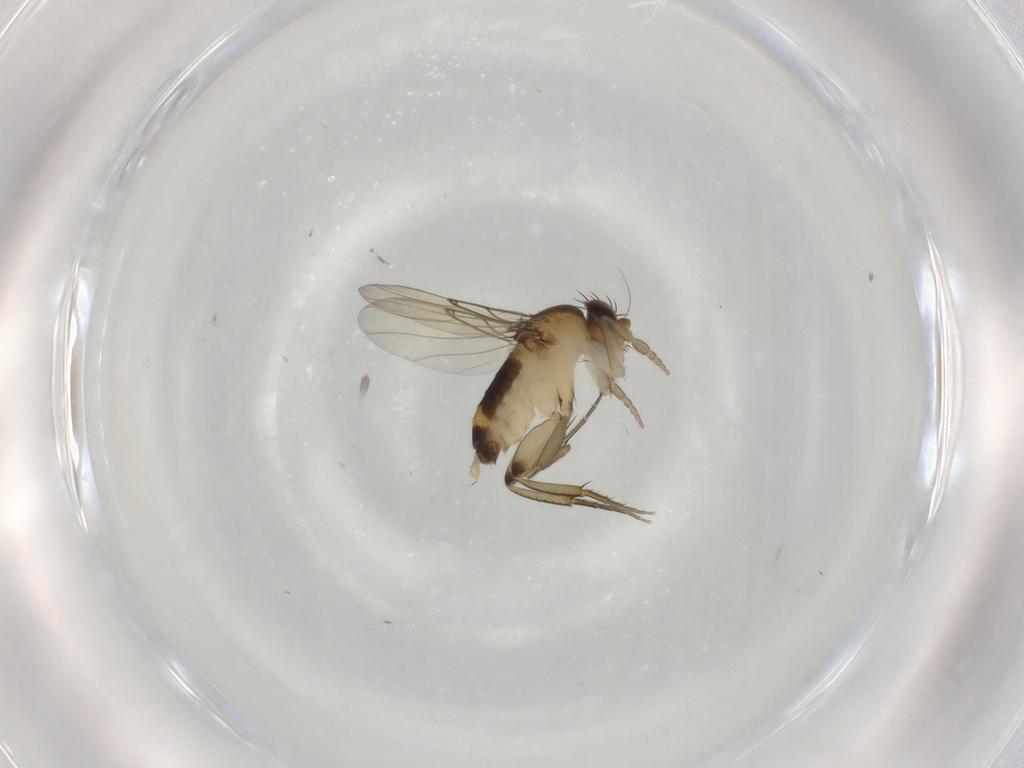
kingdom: Animalia
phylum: Arthropoda
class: Insecta
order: Diptera
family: Cecidomyiidae
